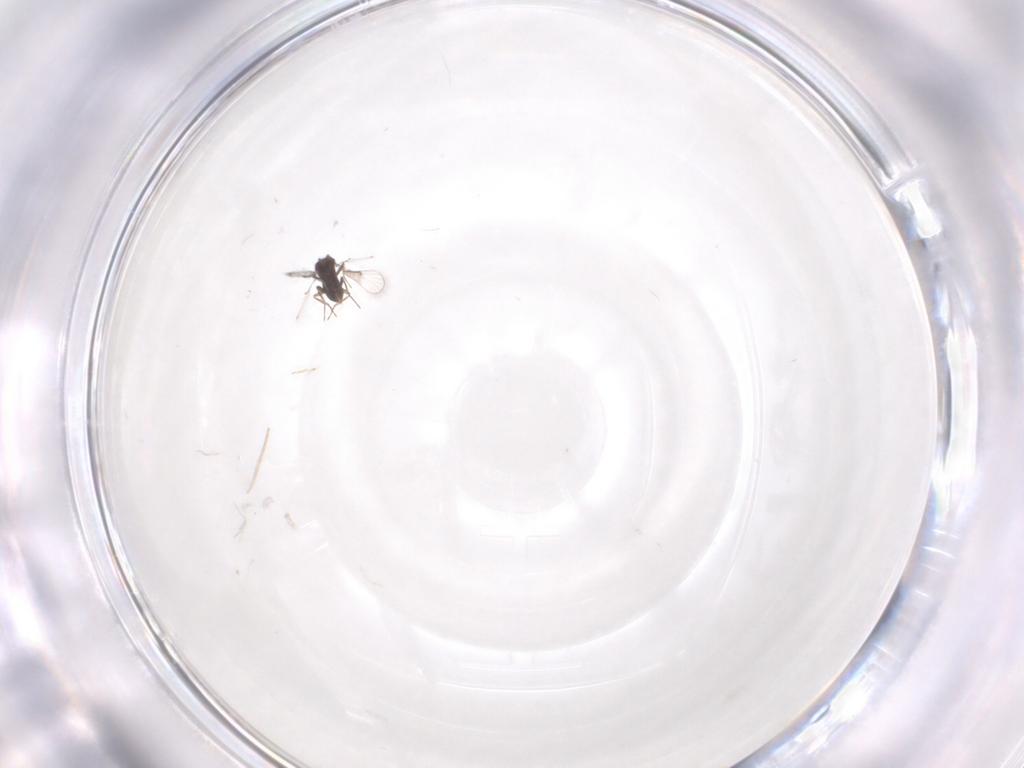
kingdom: Animalia
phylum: Arthropoda
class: Insecta
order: Hymenoptera
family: Trichogrammatidae
